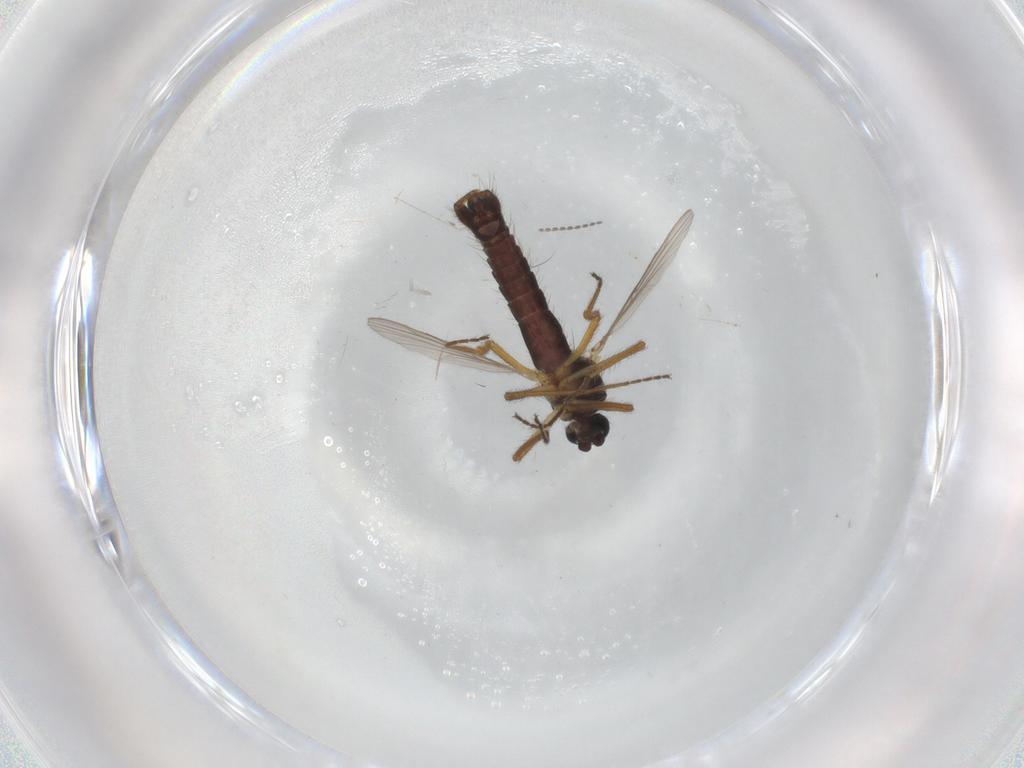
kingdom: Animalia
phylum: Arthropoda
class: Insecta
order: Diptera
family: Ceratopogonidae
